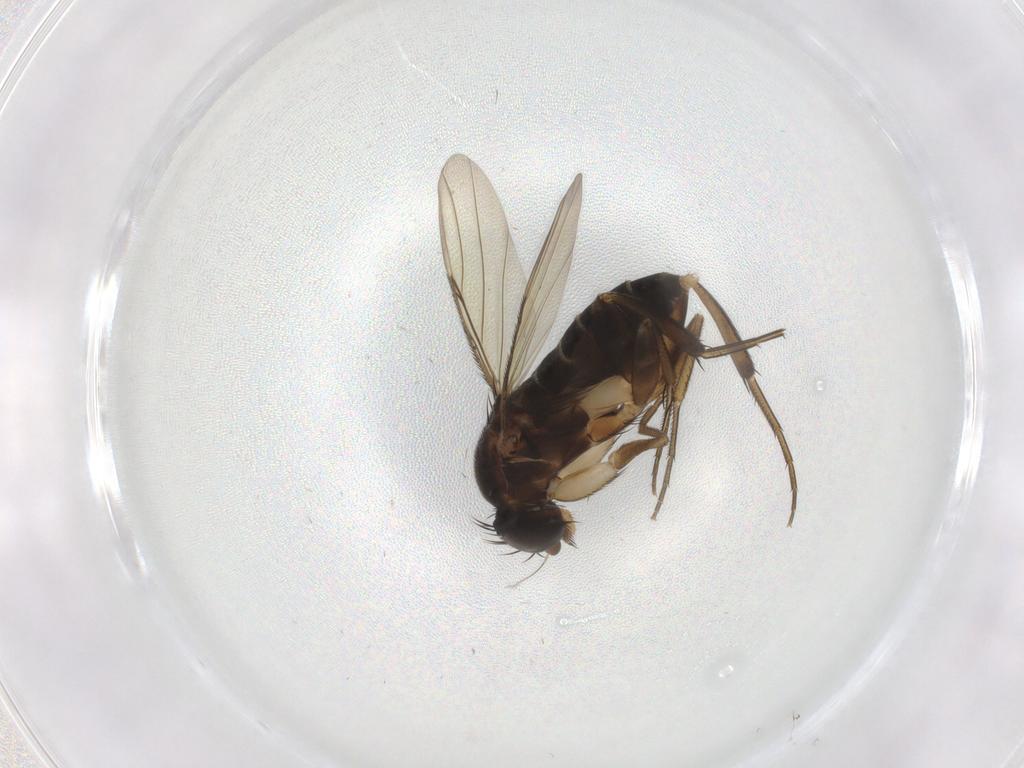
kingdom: Animalia
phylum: Arthropoda
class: Insecta
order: Diptera
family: Phoridae
